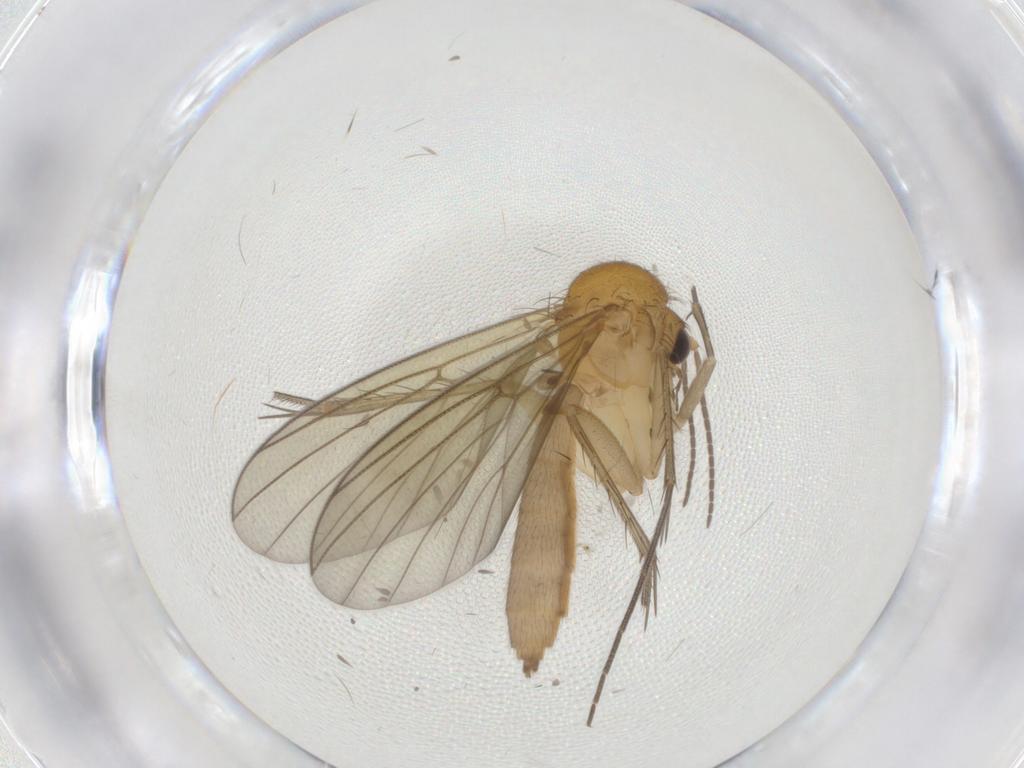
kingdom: Animalia
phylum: Arthropoda
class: Insecta
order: Diptera
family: Mycetophilidae
